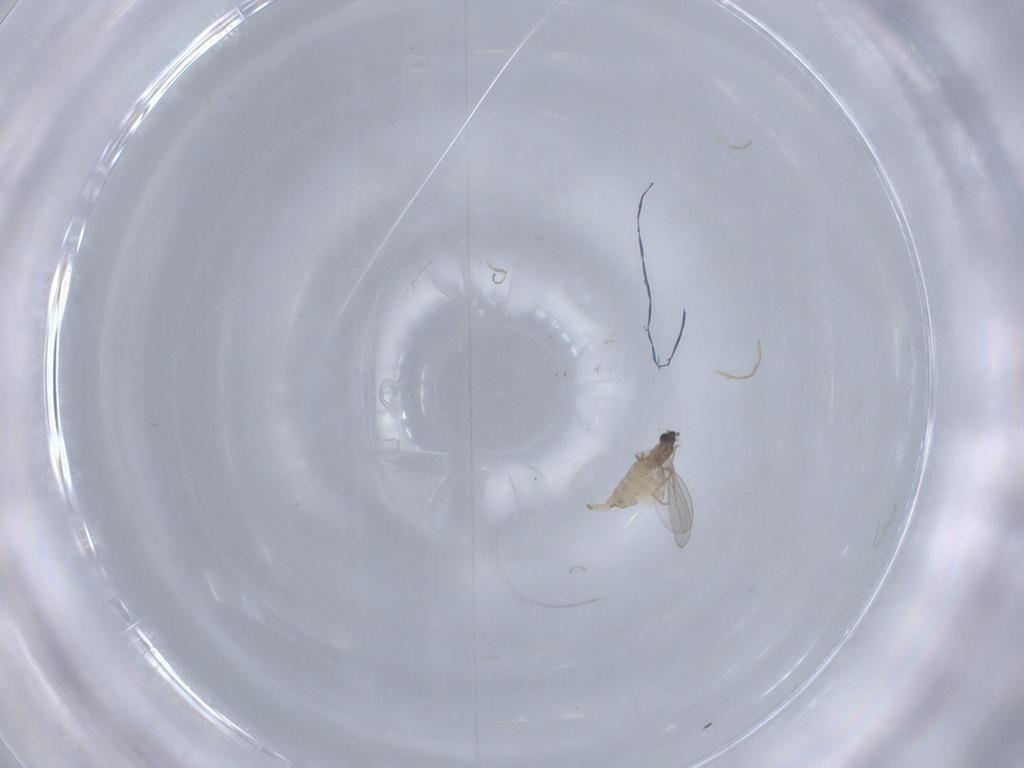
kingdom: Animalia
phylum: Arthropoda
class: Insecta
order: Diptera
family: Cecidomyiidae
